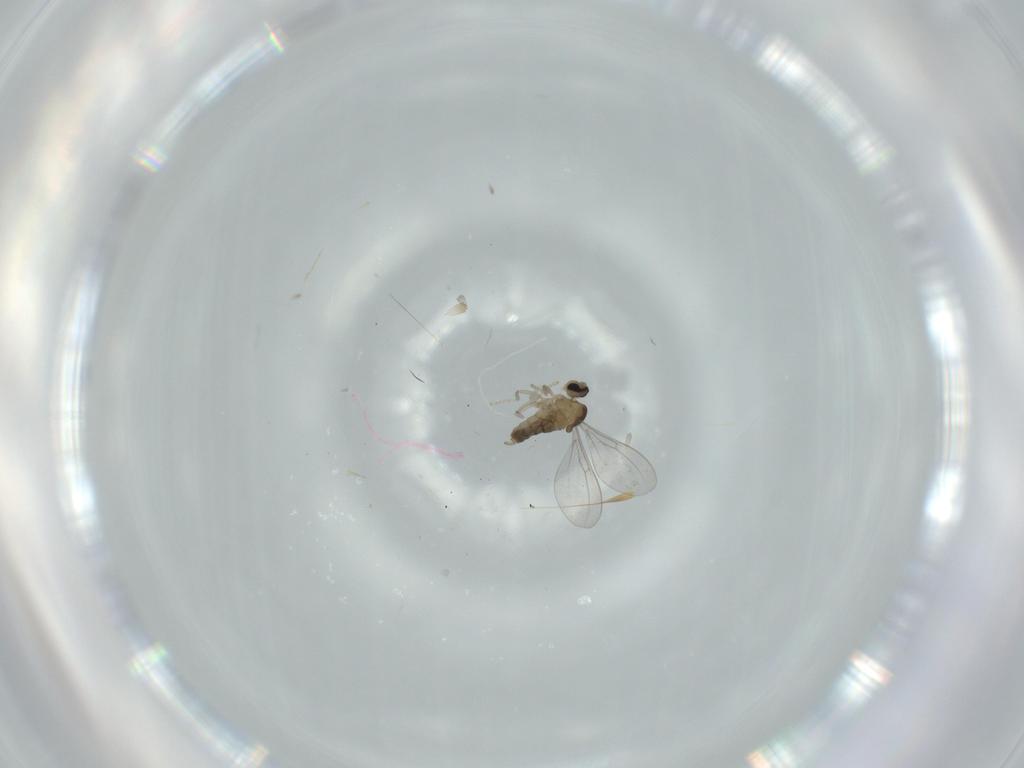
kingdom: Animalia
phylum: Arthropoda
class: Insecta
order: Diptera
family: Cecidomyiidae
